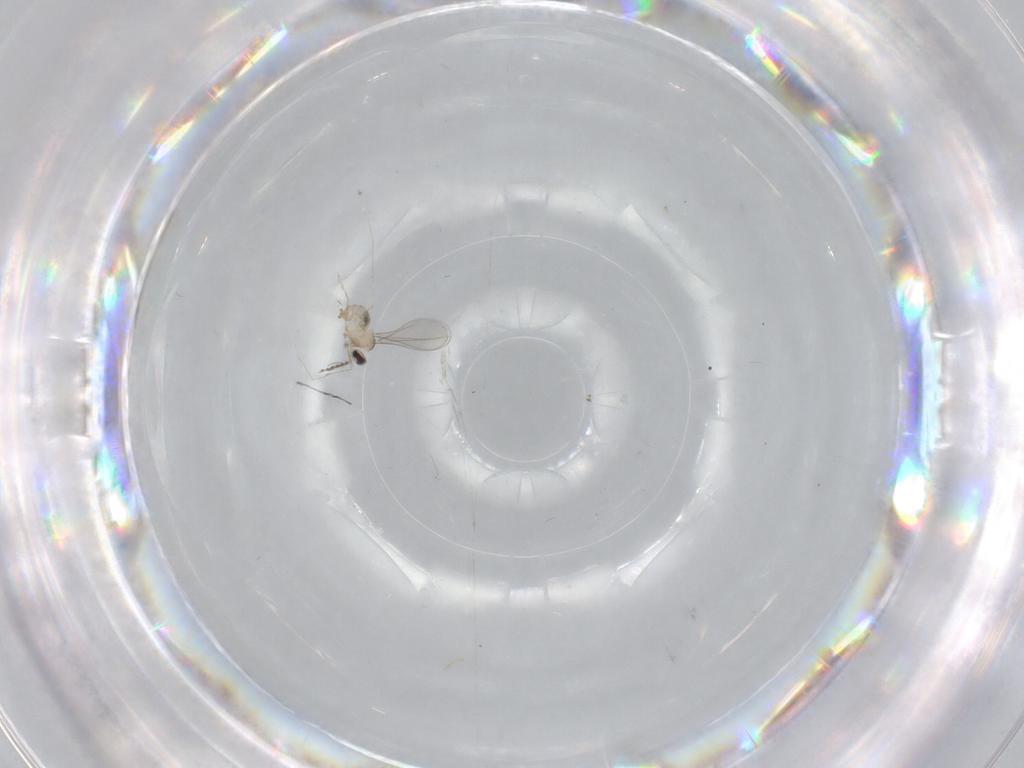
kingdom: Animalia
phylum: Arthropoda
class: Insecta
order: Diptera
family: Cecidomyiidae
